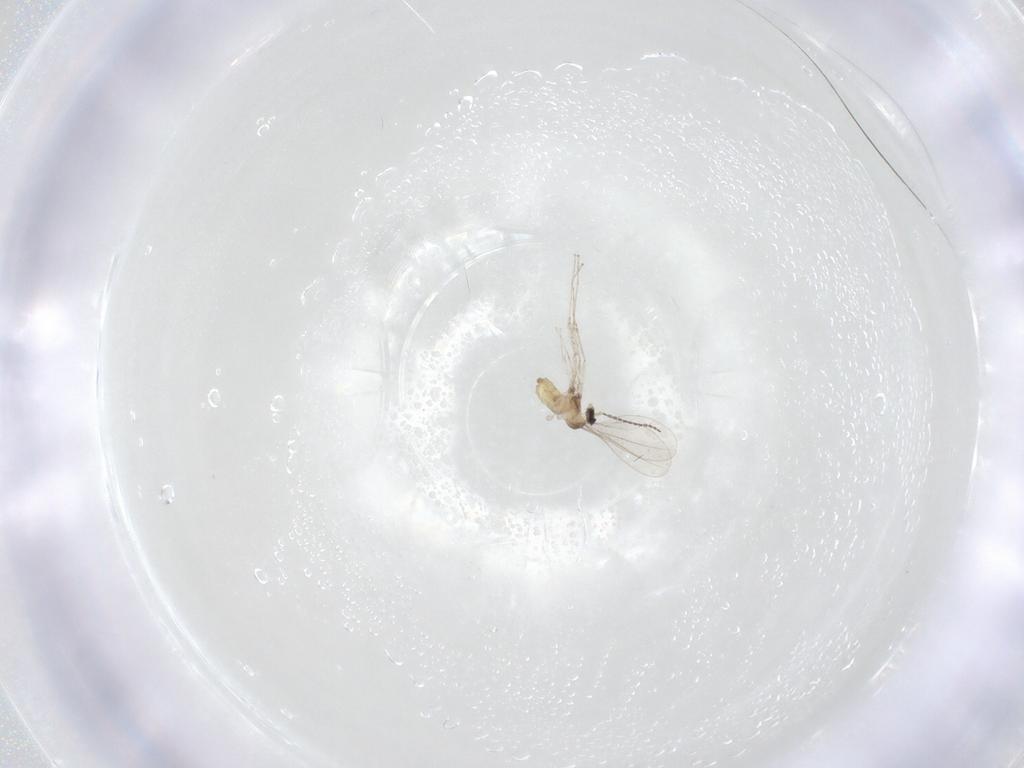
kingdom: Animalia
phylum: Arthropoda
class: Insecta
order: Diptera
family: Cecidomyiidae
